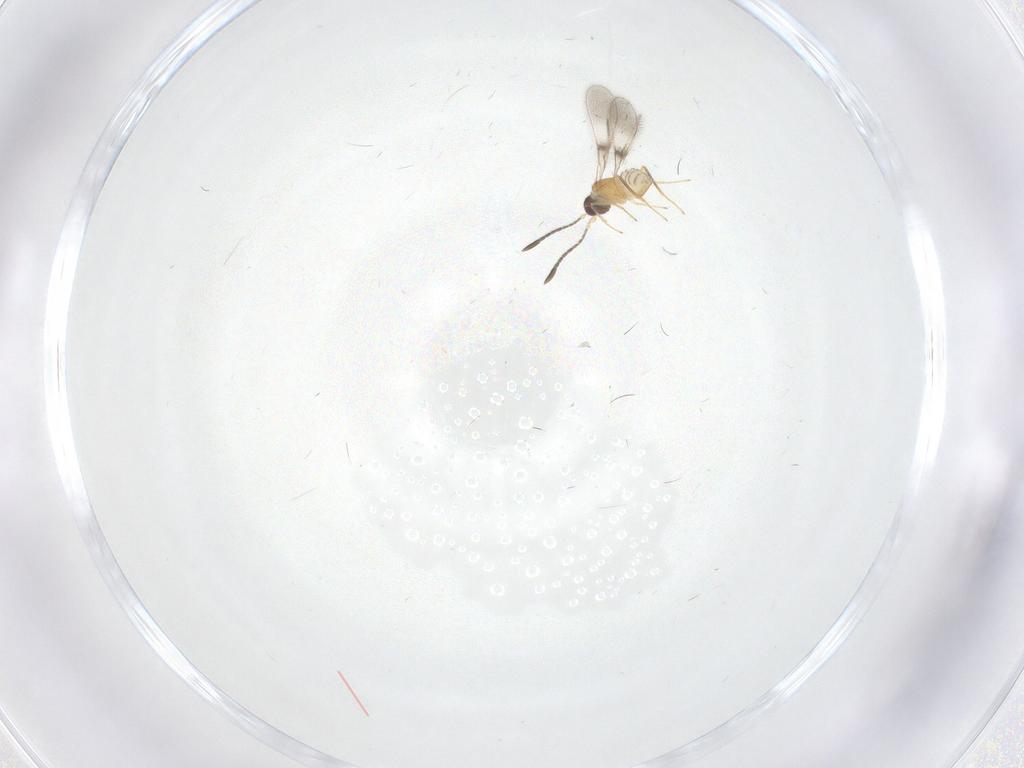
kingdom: Animalia
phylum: Arthropoda
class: Insecta
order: Hymenoptera
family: Mymaridae
